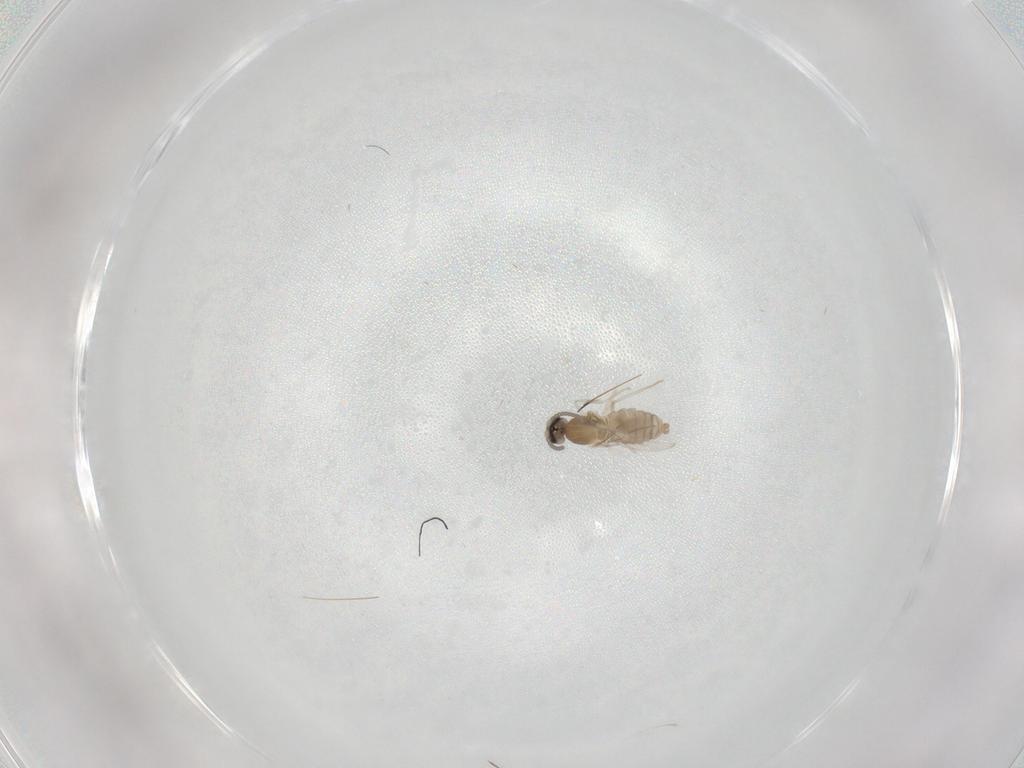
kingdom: Animalia
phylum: Arthropoda
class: Insecta
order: Diptera
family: Cecidomyiidae
